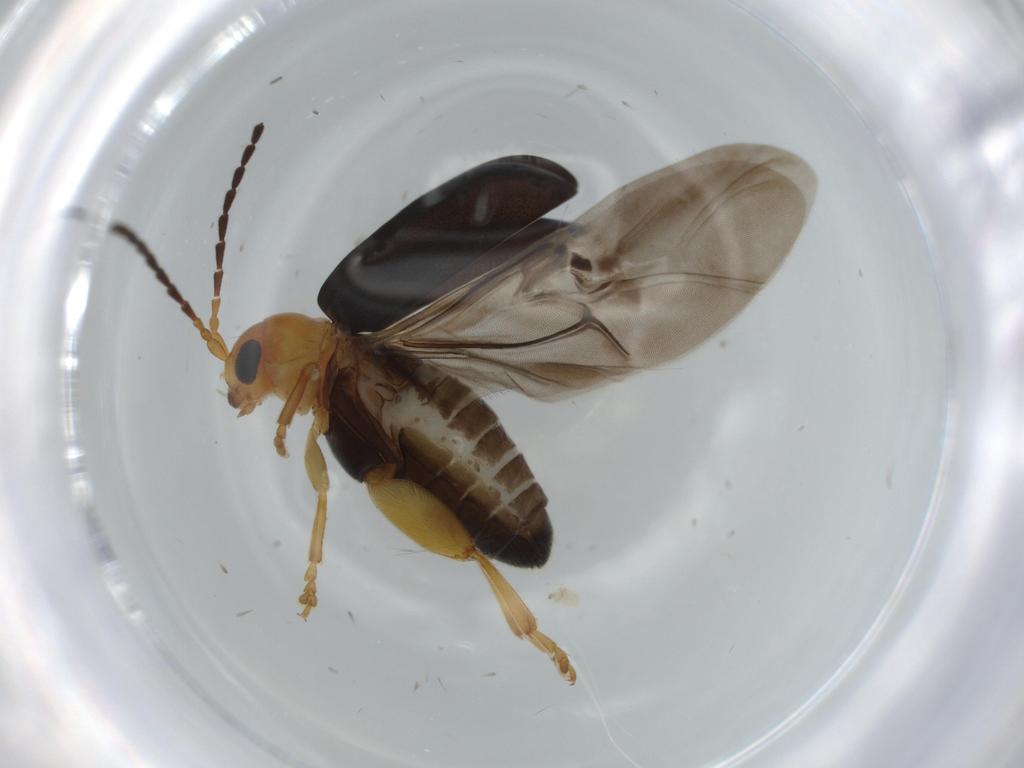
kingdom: Animalia
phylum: Arthropoda
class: Insecta
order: Coleoptera
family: Chrysomelidae
